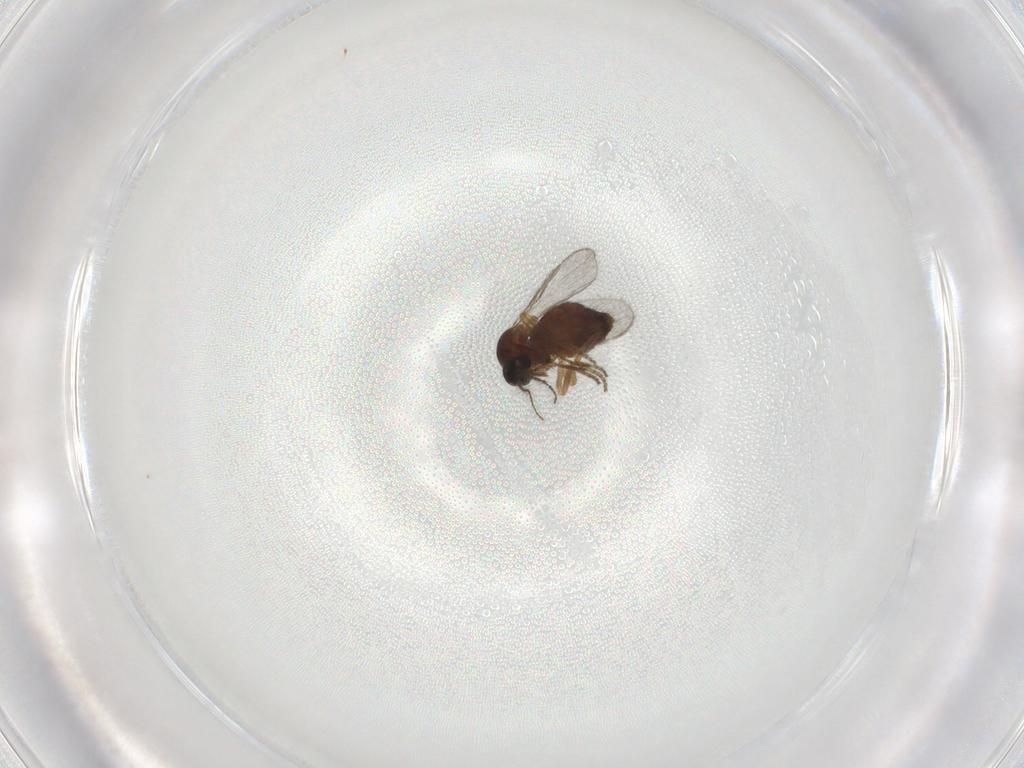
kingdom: Animalia
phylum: Arthropoda
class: Insecta
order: Diptera
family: Ceratopogonidae
